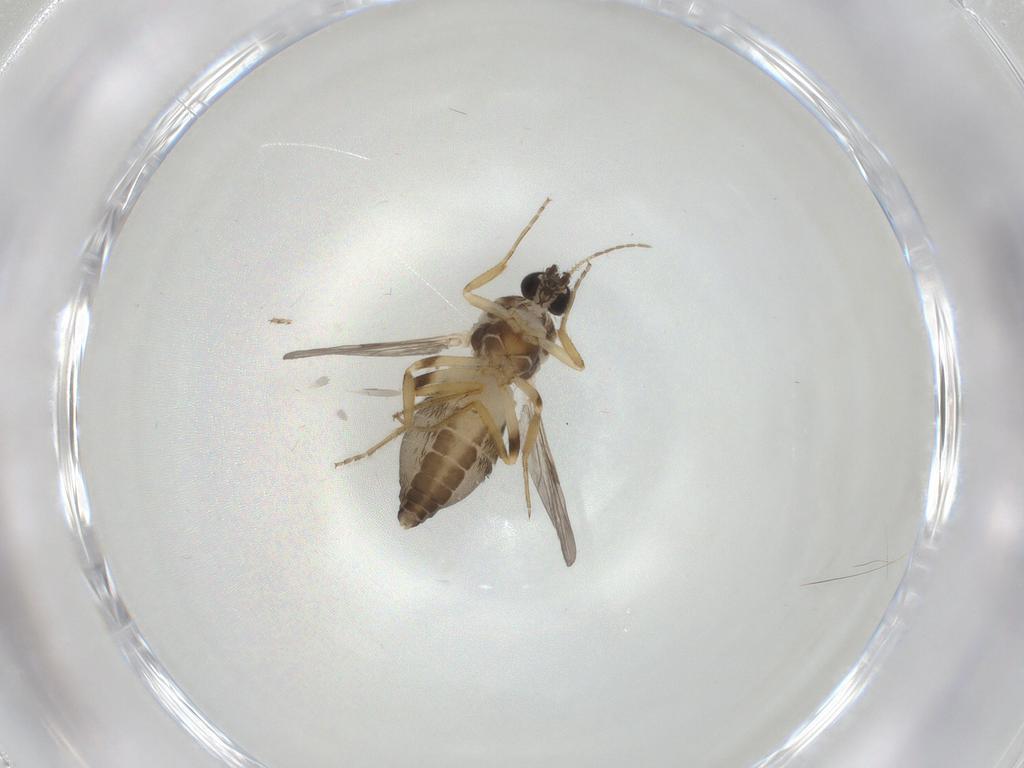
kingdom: Animalia
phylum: Arthropoda
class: Insecta
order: Diptera
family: Ceratopogonidae
